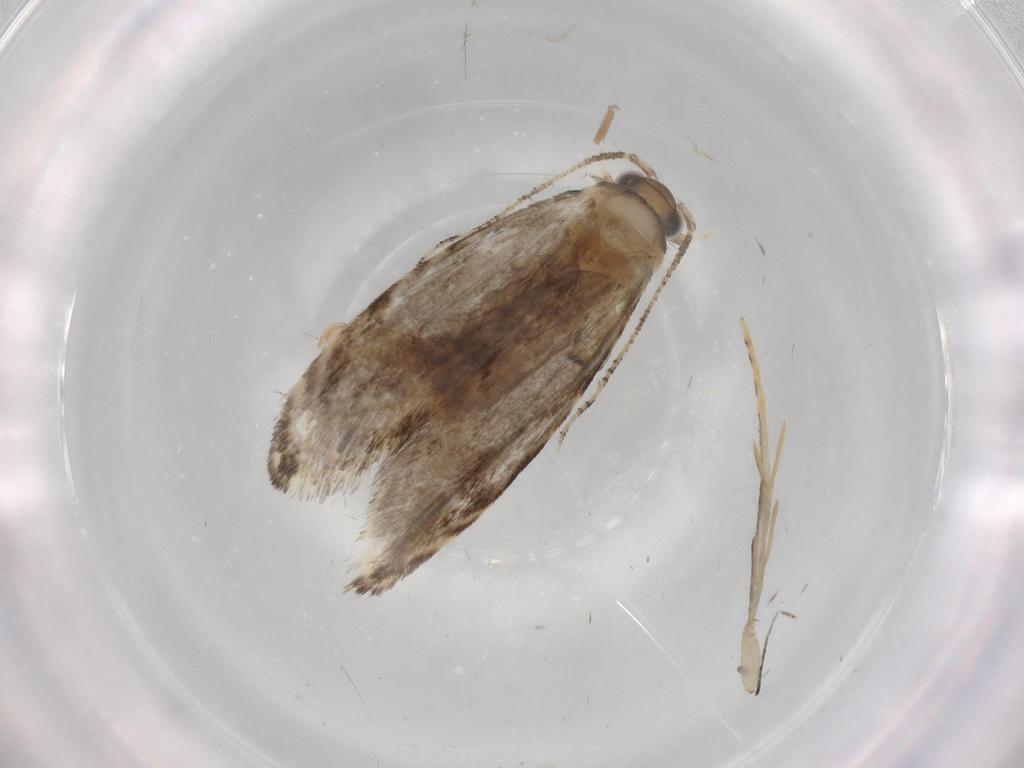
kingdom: Animalia
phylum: Arthropoda
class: Insecta
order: Lepidoptera
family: Tineidae
